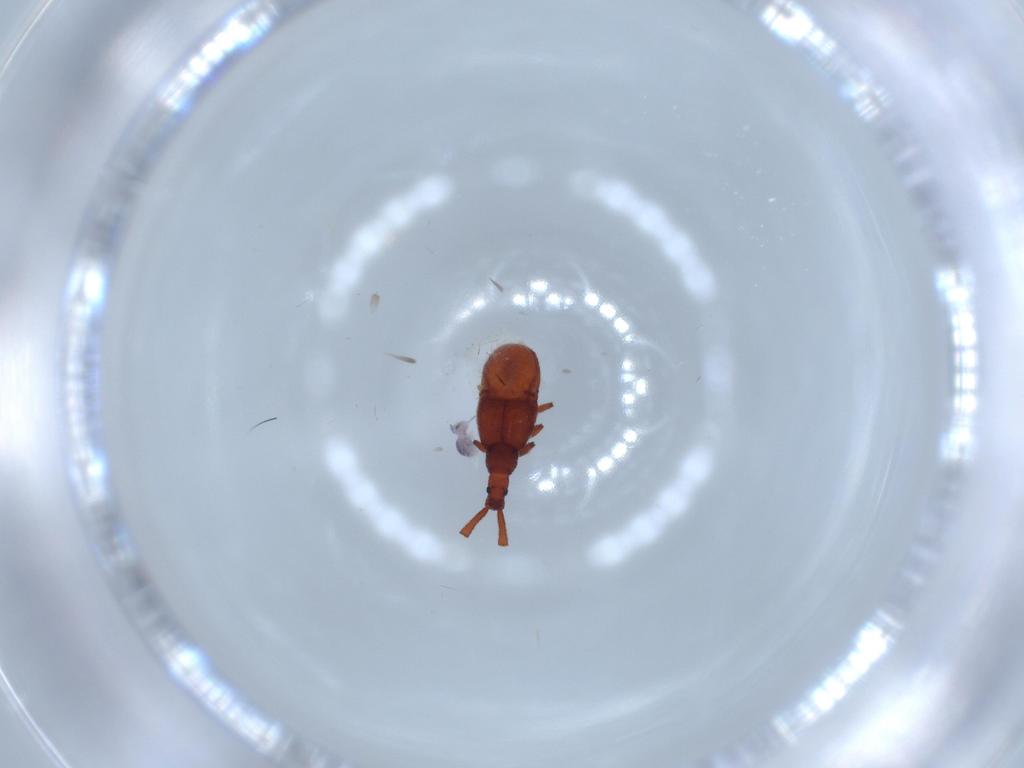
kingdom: Animalia
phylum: Arthropoda
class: Insecta
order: Coleoptera
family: Staphylinidae
